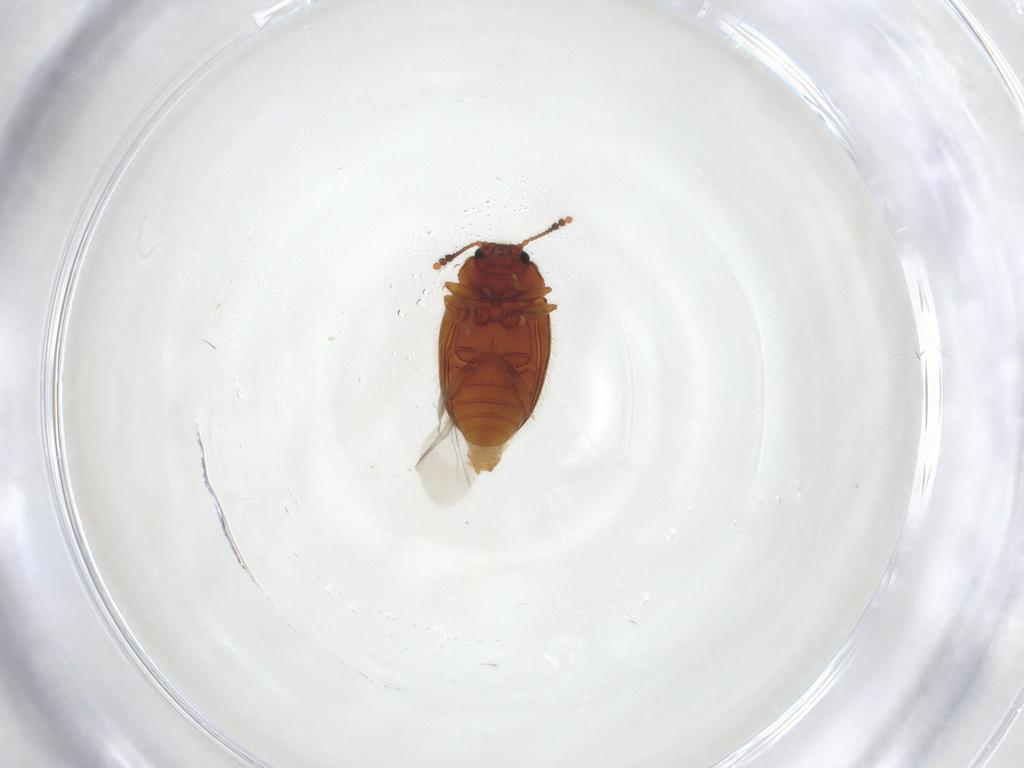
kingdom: Animalia
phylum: Arthropoda
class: Insecta
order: Coleoptera
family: Erotylidae
